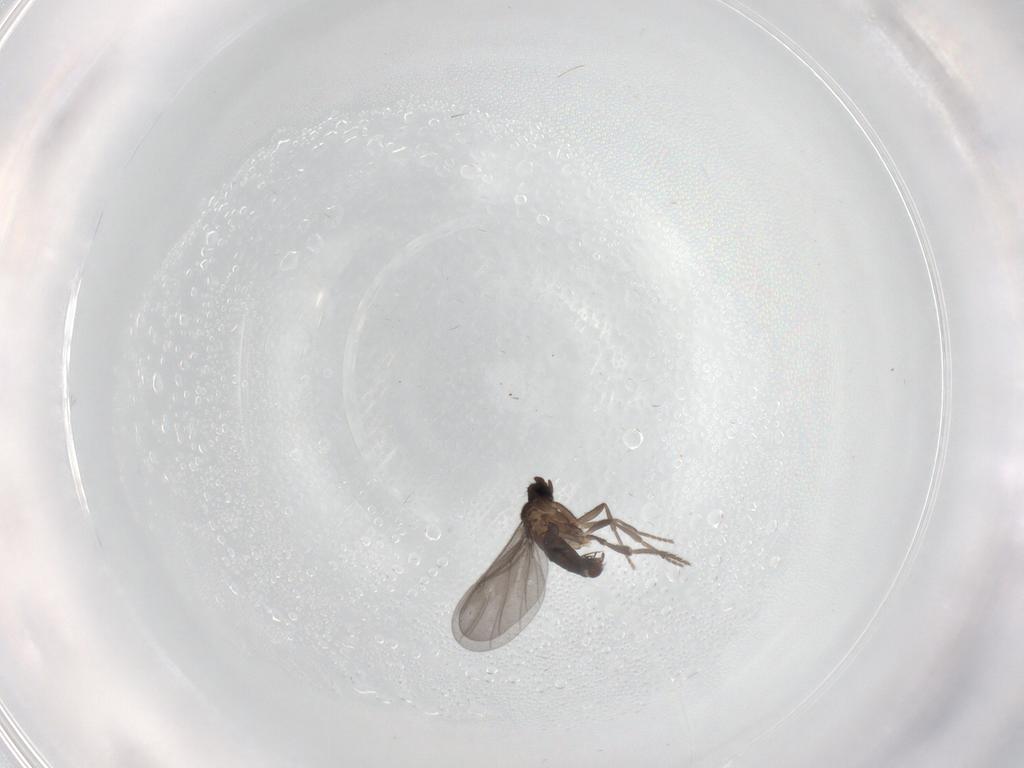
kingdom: Animalia
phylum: Arthropoda
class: Insecta
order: Diptera
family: Phoridae
